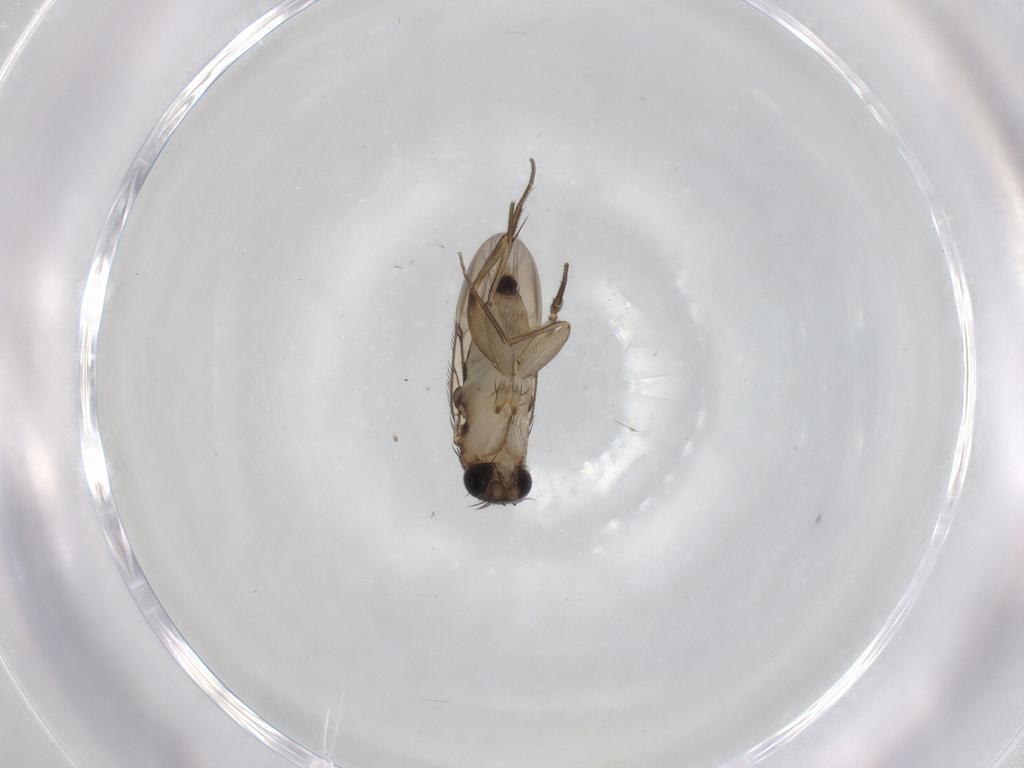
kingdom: Animalia
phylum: Arthropoda
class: Insecta
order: Diptera
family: Phoridae
